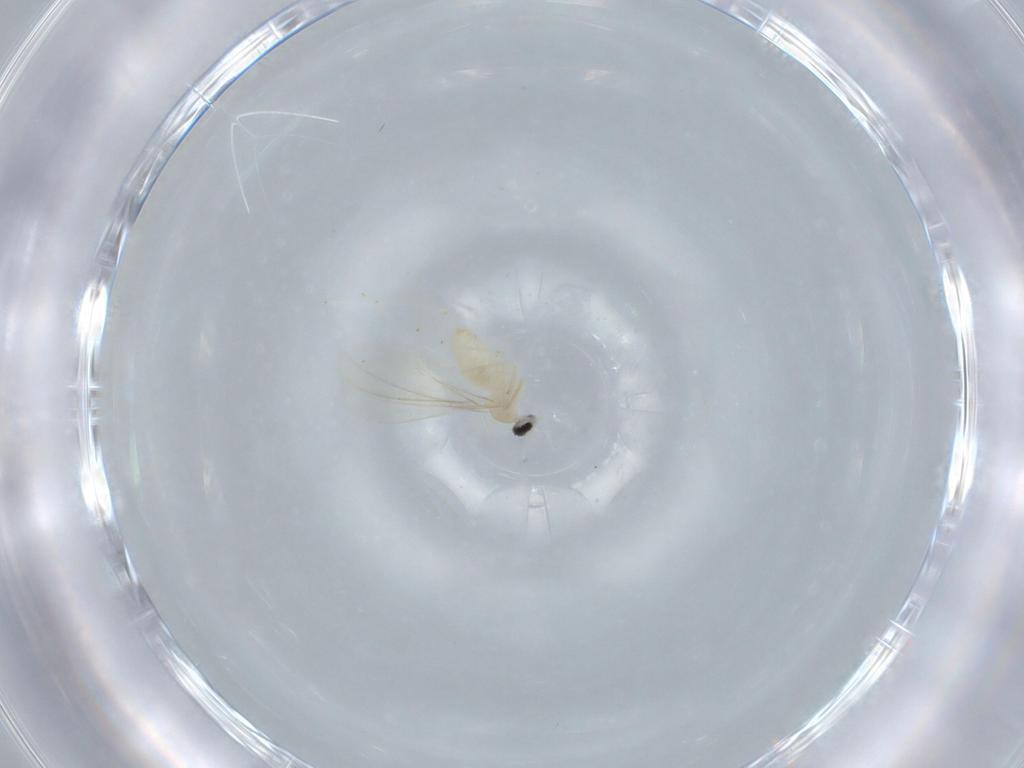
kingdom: Animalia
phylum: Arthropoda
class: Insecta
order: Diptera
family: Cecidomyiidae
